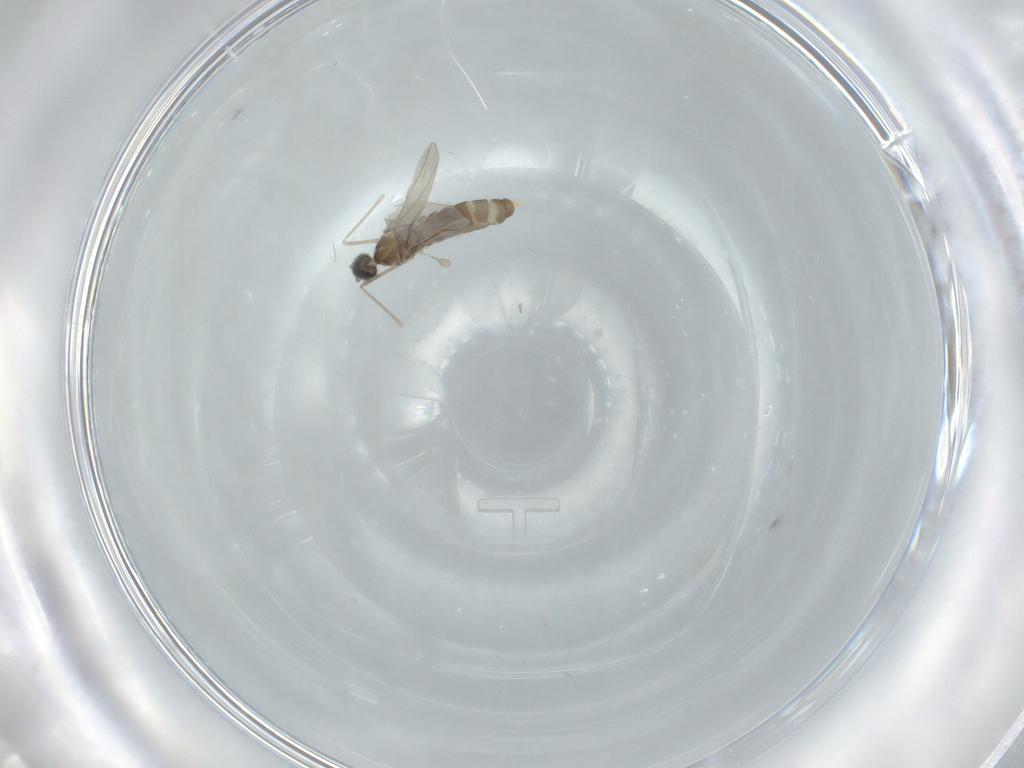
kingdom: Animalia
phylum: Arthropoda
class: Insecta
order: Diptera
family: Cecidomyiidae
